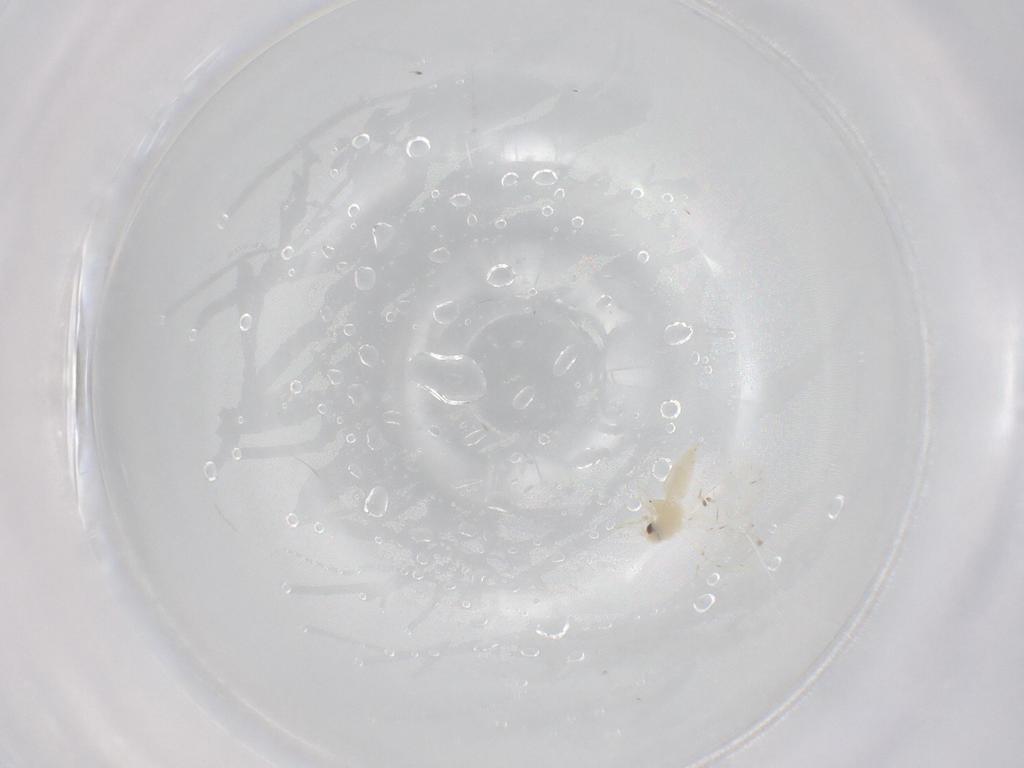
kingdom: Animalia
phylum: Arthropoda
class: Insecta
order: Hemiptera
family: Aleyrodidae
